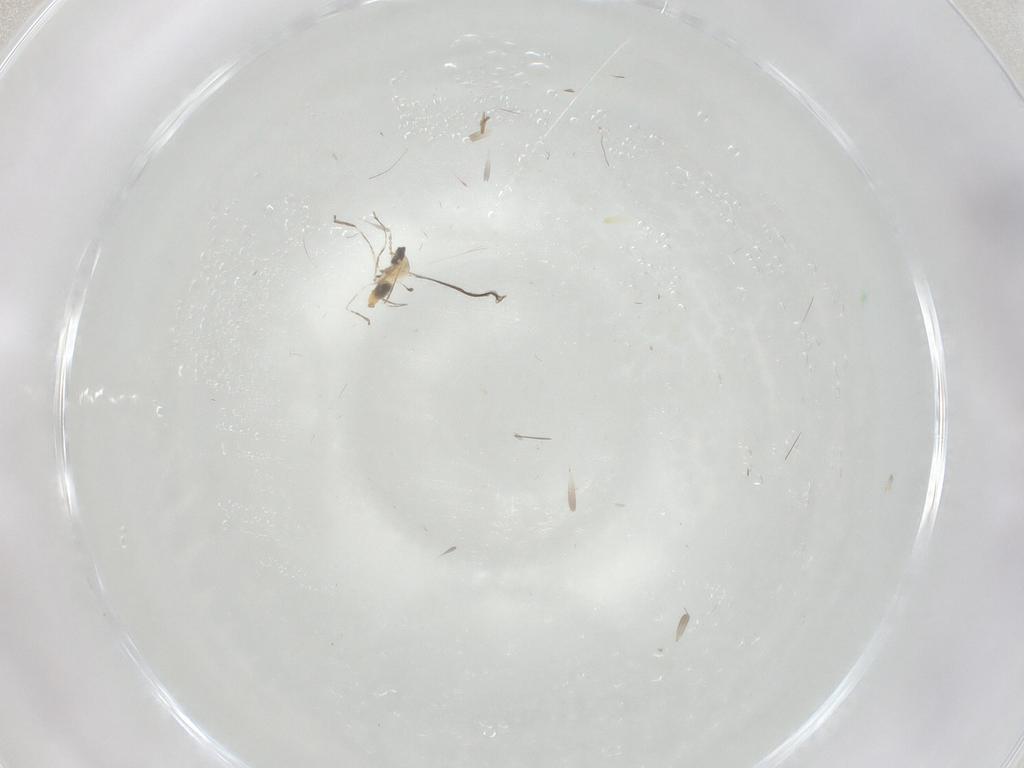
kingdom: Animalia
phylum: Arthropoda
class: Insecta
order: Diptera
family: Cecidomyiidae
